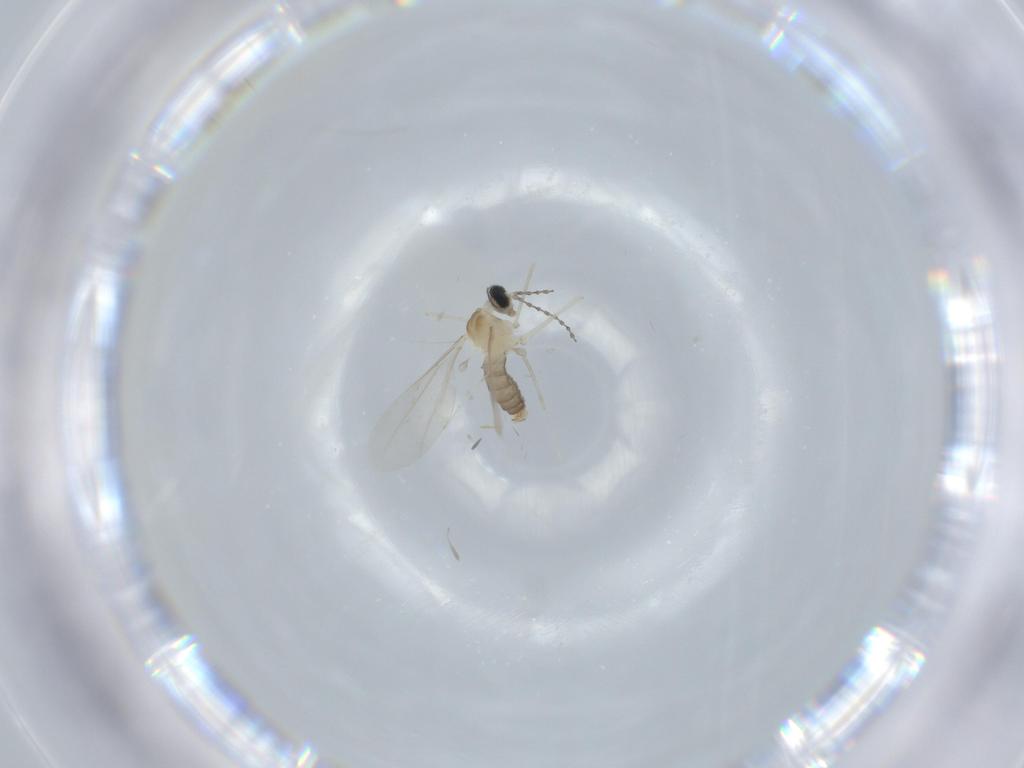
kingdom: Animalia
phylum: Arthropoda
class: Insecta
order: Diptera
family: Cecidomyiidae
